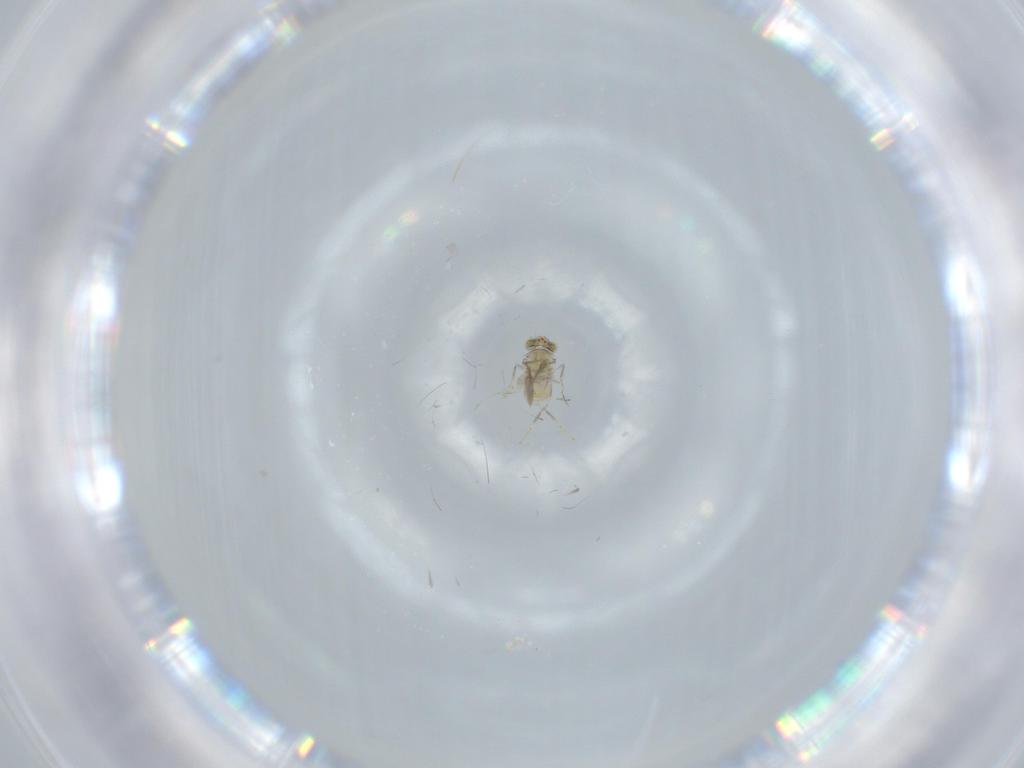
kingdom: Animalia
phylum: Arthropoda
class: Insecta
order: Hymenoptera
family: Aphelinidae
